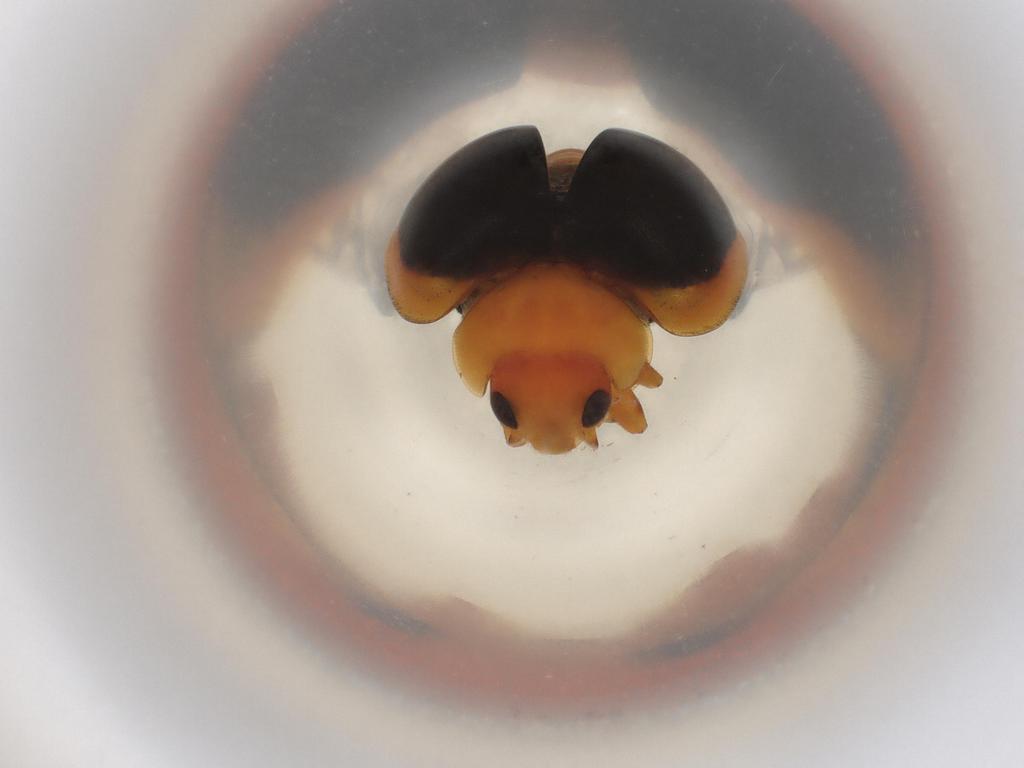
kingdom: Animalia
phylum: Arthropoda
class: Insecta
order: Coleoptera
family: Coccinellidae
